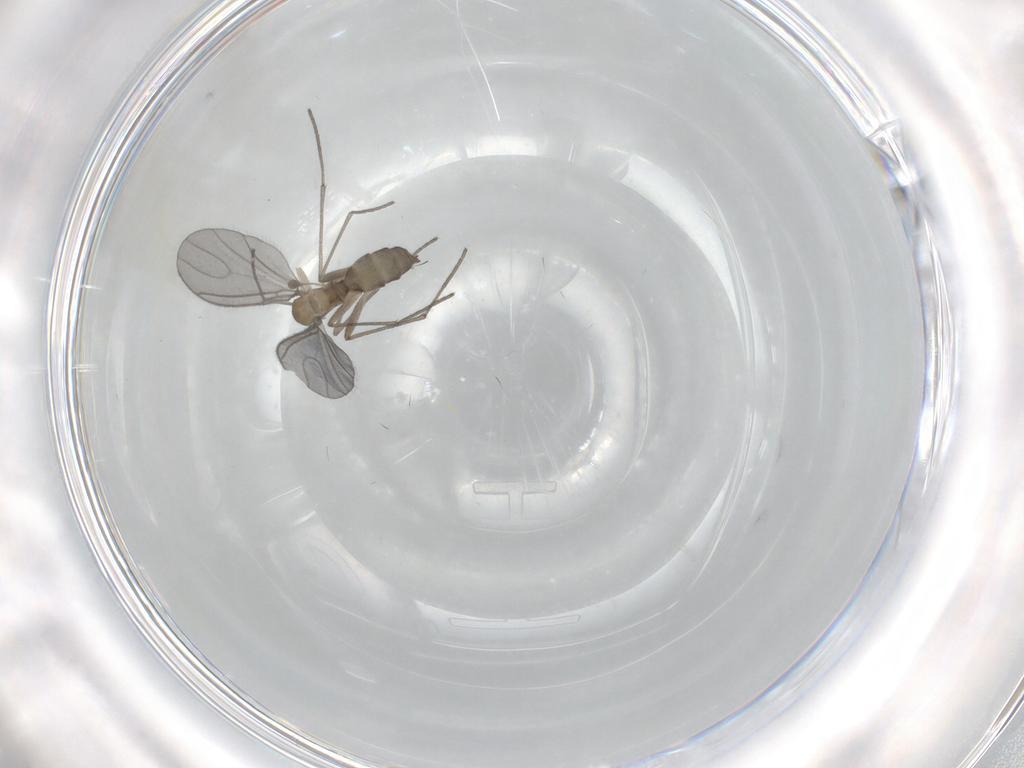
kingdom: Animalia
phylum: Arthropoda
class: Insecta
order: Diptera
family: Sciaridae
